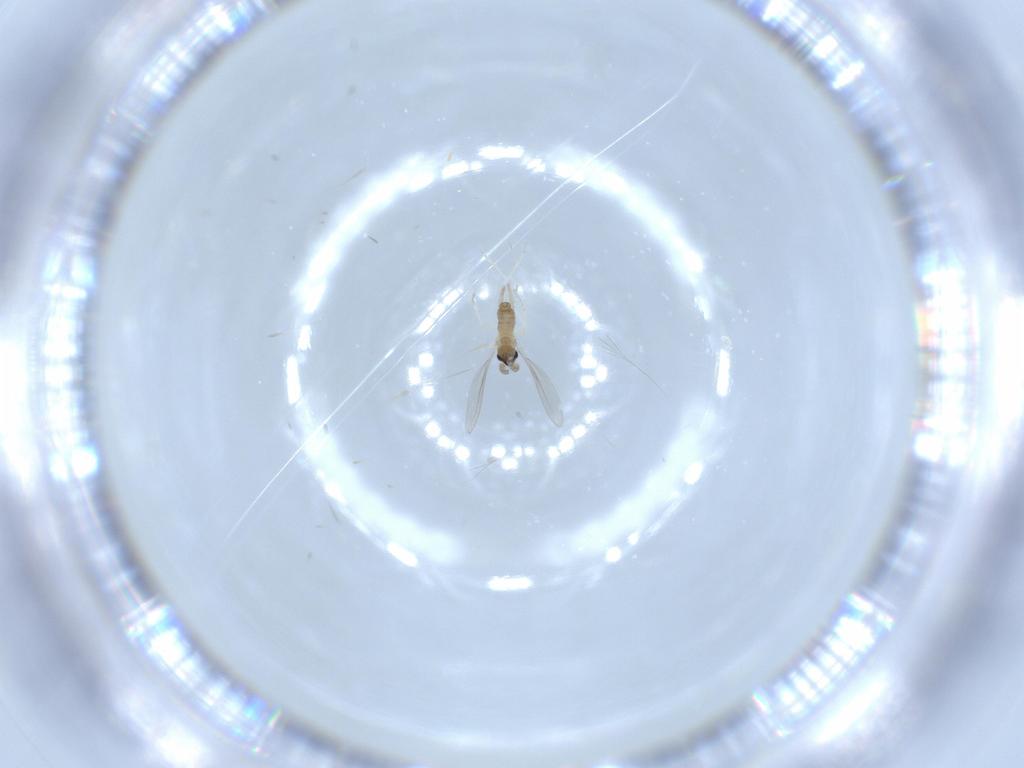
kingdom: Animalia
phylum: Arthropoda
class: Insecta
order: Diptera
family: Cecidomyiidae
